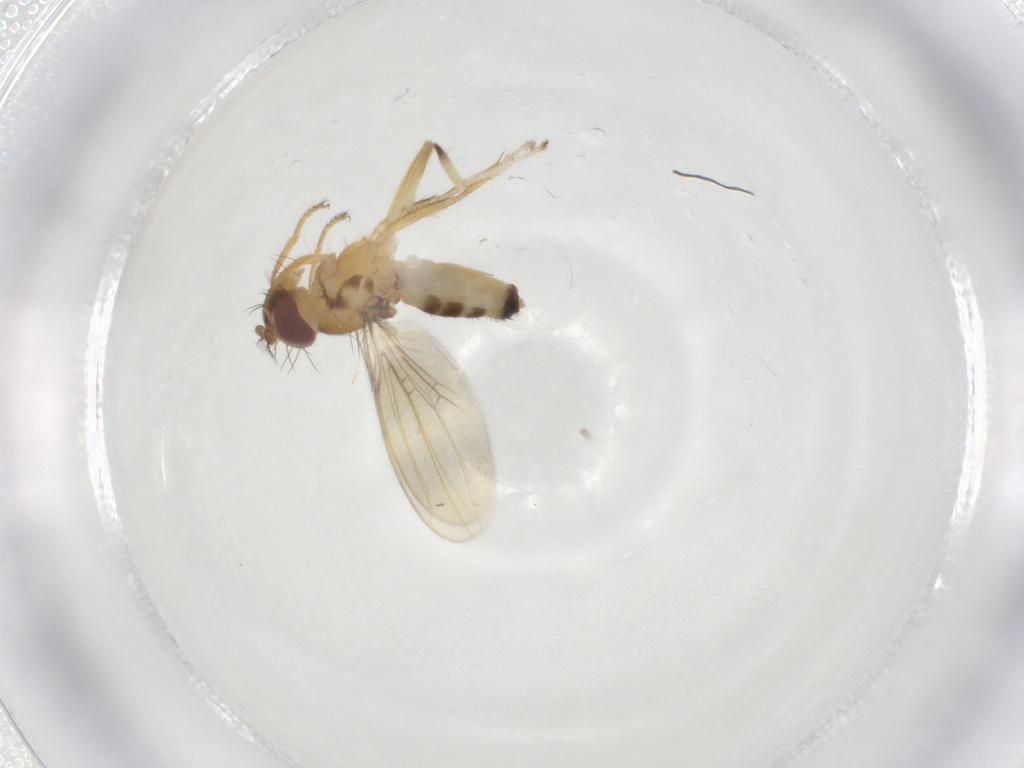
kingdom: Animalia
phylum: Arthropoda
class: Insecta
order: Diptera
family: Periscelididae
